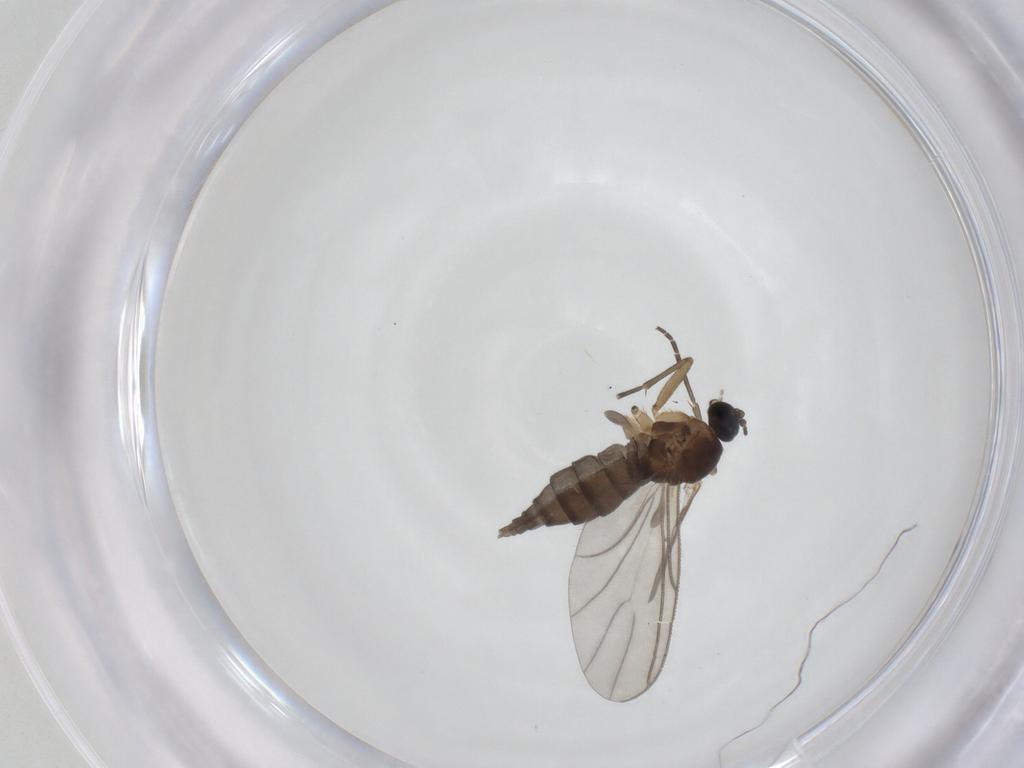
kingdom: Animalia
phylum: Arthropoda
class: Insecta
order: Diptera
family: Sciaridae
